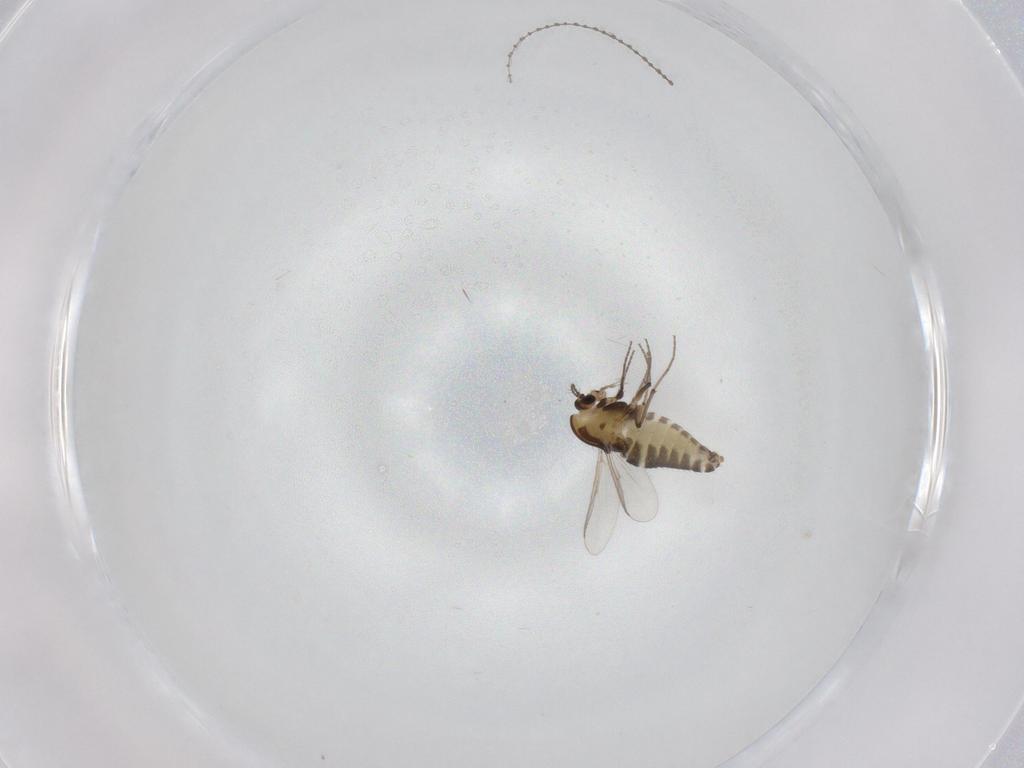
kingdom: Animalia
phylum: Arthropoda
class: Insecta
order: Diptera
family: Chironomidae
